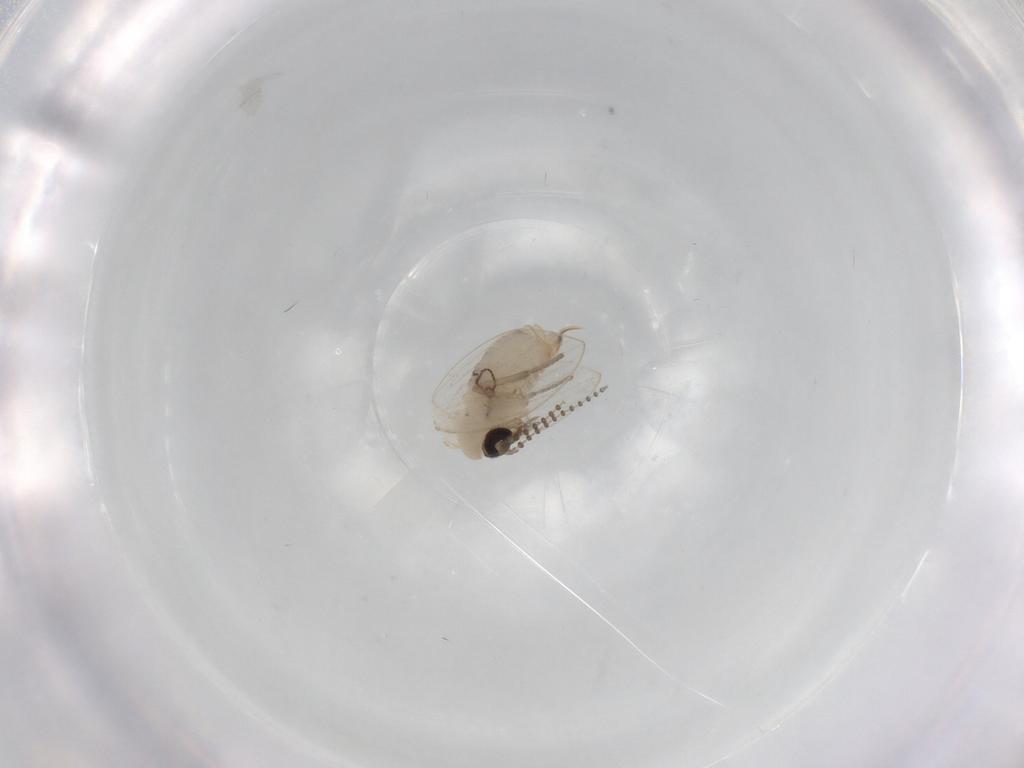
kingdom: Animalia
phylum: Arthropoda
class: Insecta
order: Diptera
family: Psychodidae
